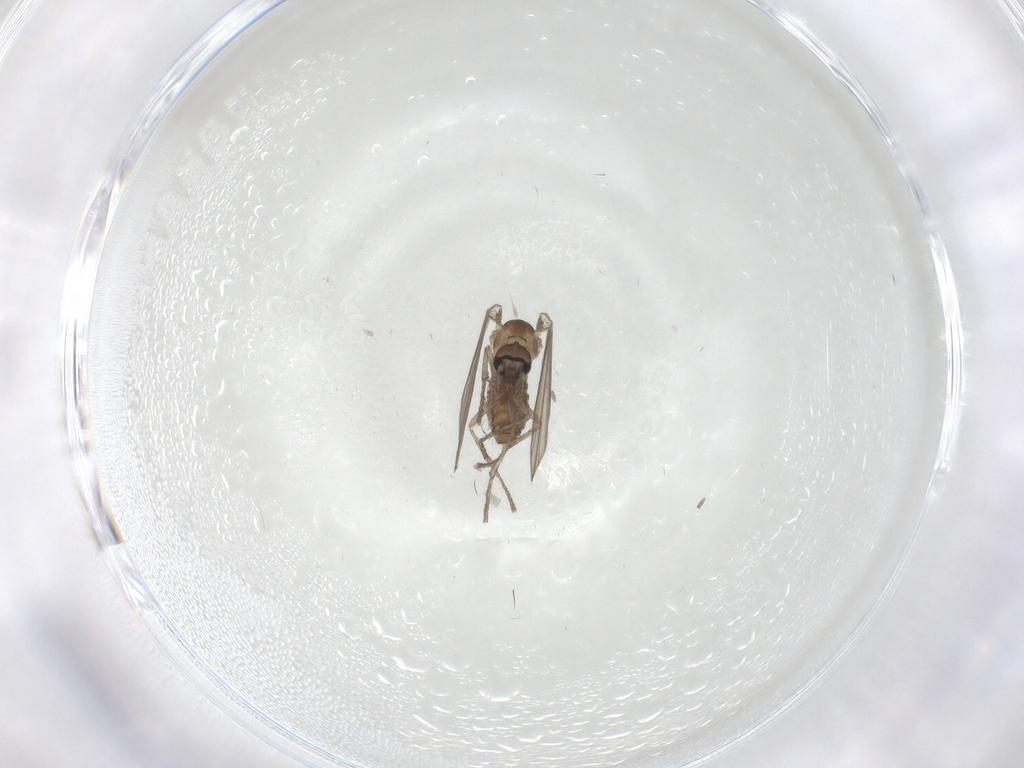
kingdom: Animalia
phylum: Arthropoda
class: Insecta
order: Diptera
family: Psychodidae
